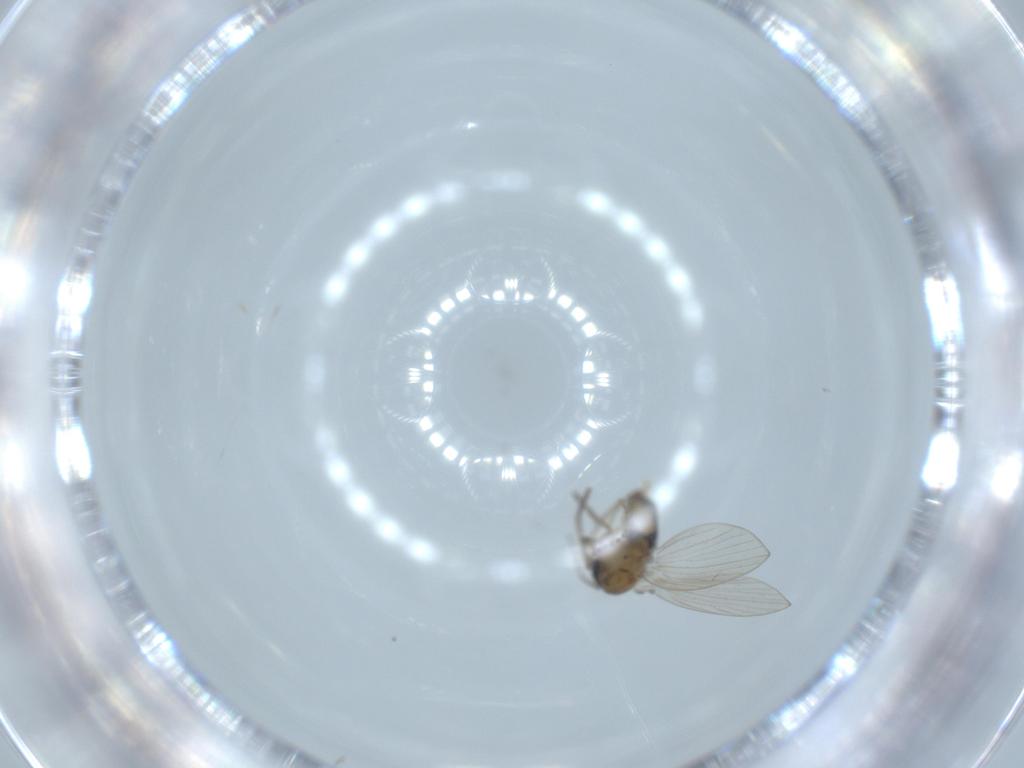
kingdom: Animalia
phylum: Arthropoda
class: Insecta
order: Diptera
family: Psychodidae
